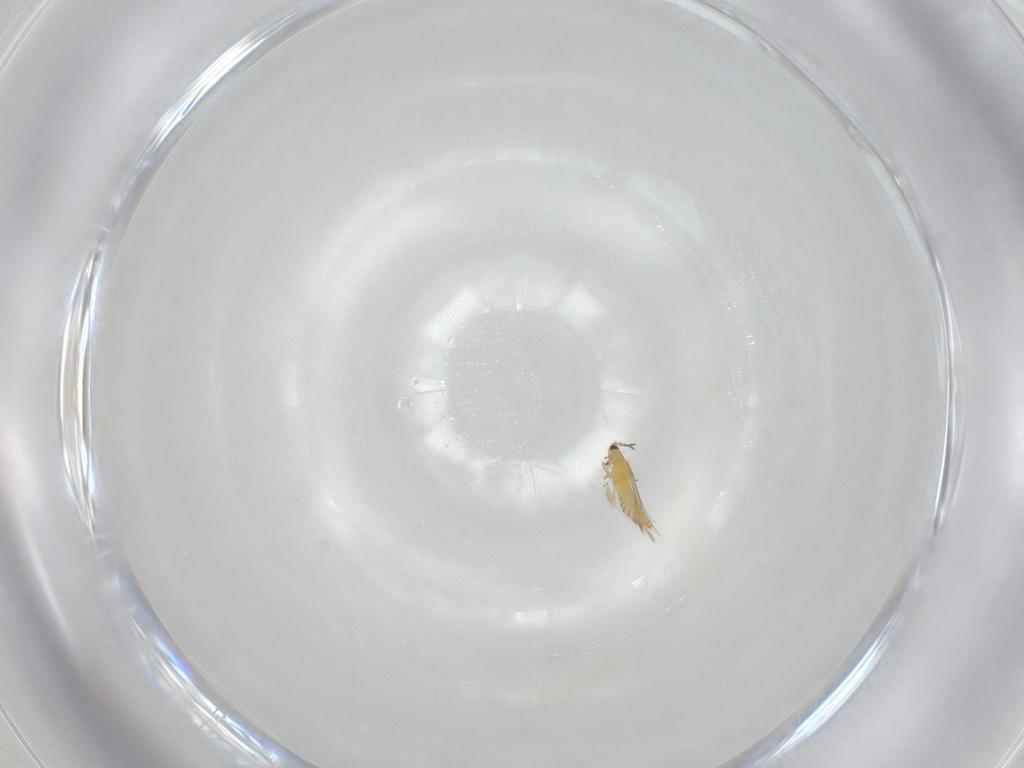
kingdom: Animalia
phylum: Arthropoda
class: Insecta
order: Thysanoptera
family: Thripidae
